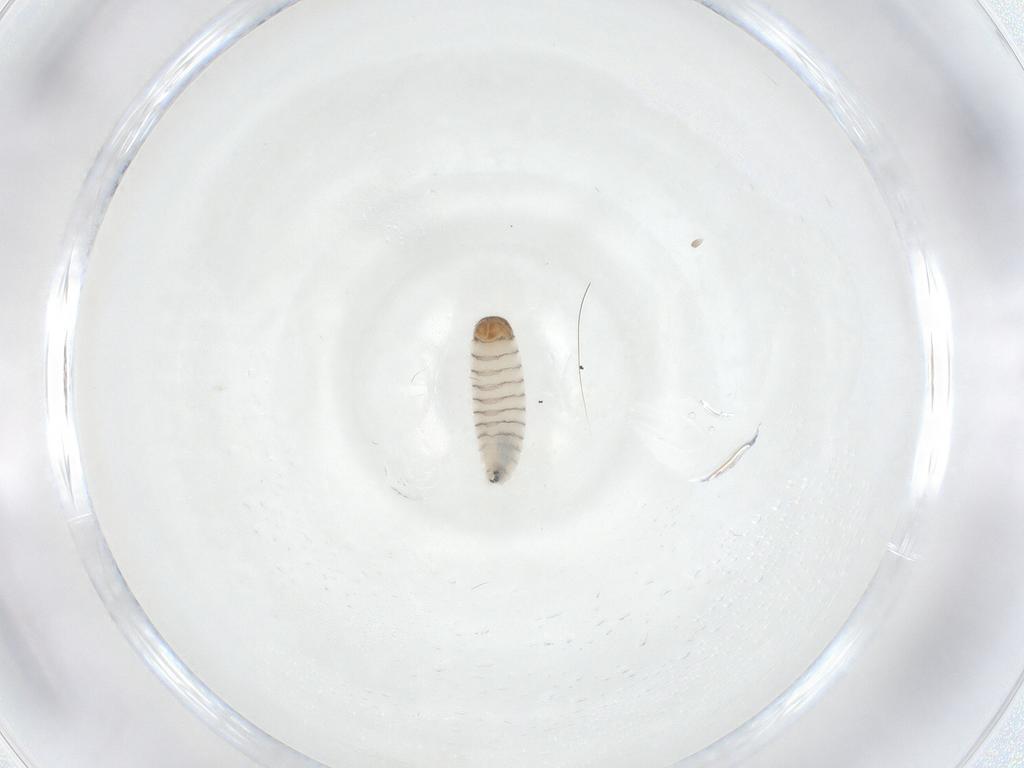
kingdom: Animalia
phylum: Arthropoda
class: Insecta
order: Diptera
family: Sarcophagidae
